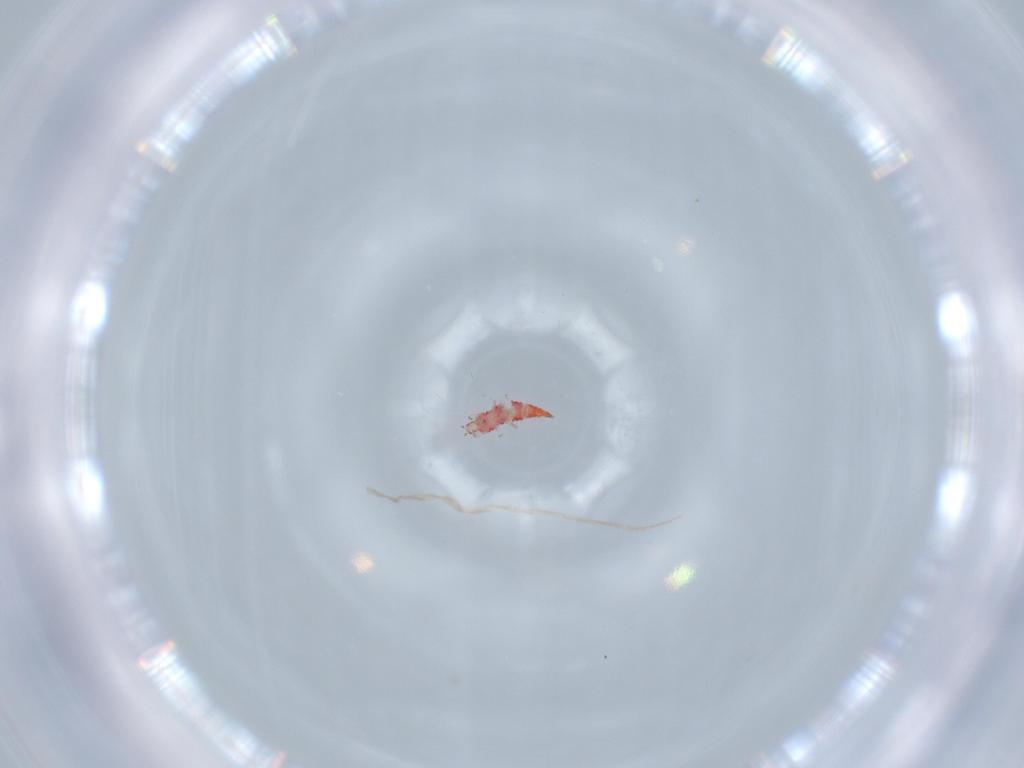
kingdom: Animalia
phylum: Arthropoda
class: Insecta
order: Thysanoptera
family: Phlaeothripidae
